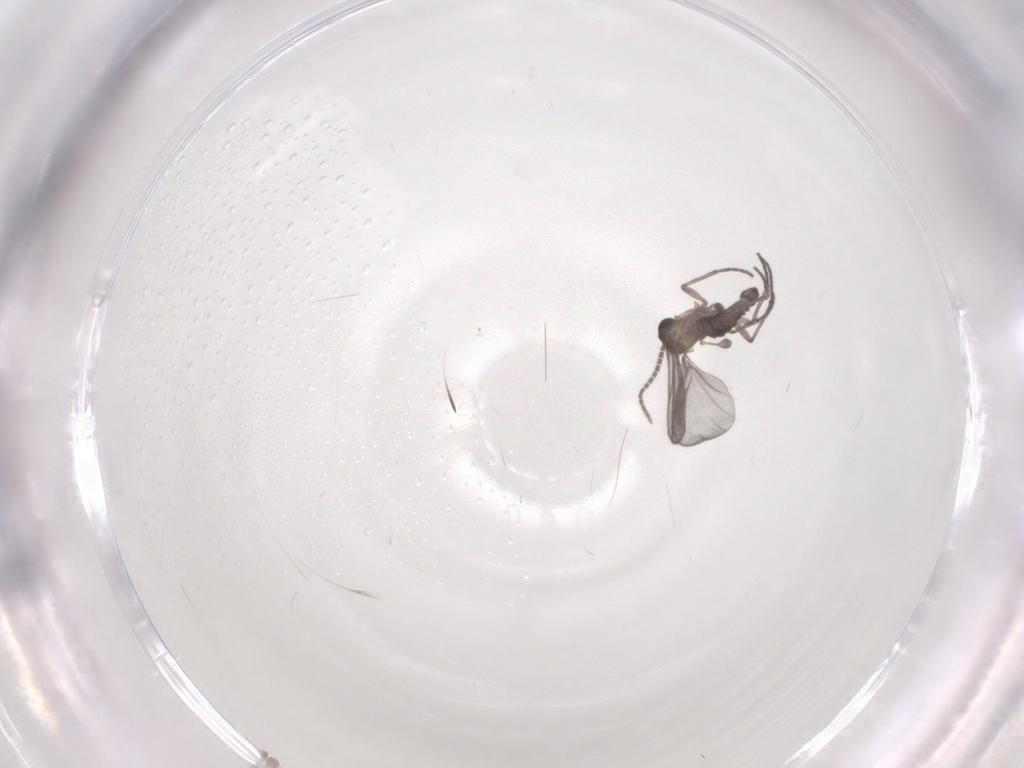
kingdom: Animalia
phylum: Arthropoda
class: Insecta
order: Diptera
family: Sciaridae
